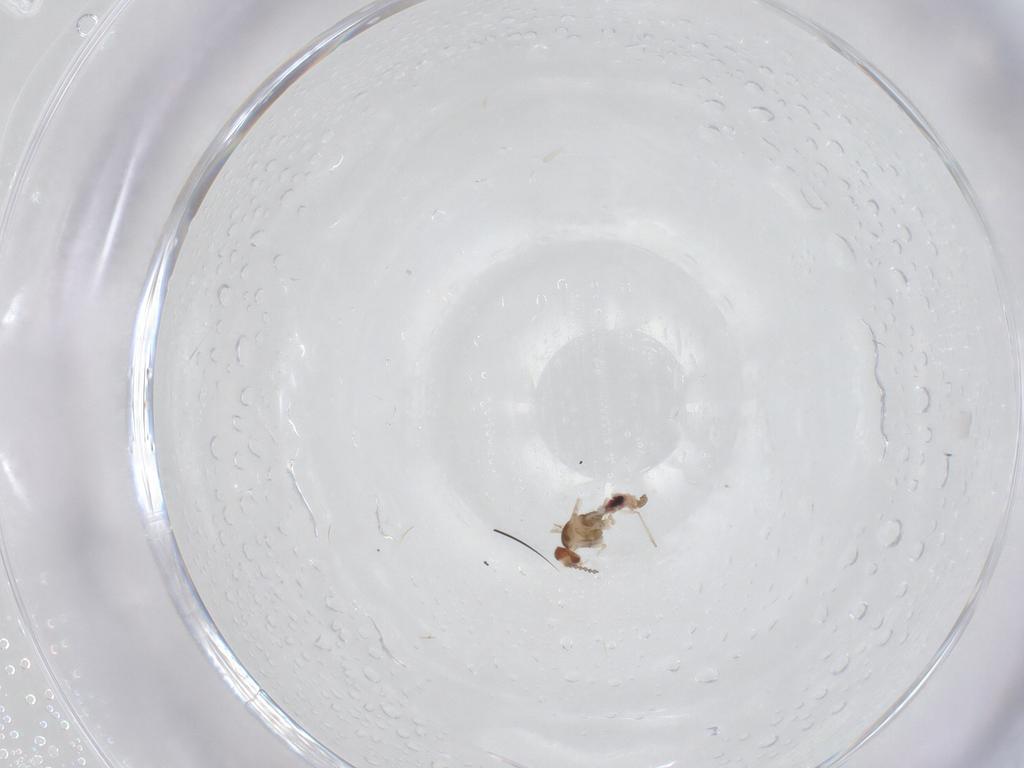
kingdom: Animalia
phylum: Arthropoda
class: Insecta
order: Diptera
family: Cecidomyiidae
